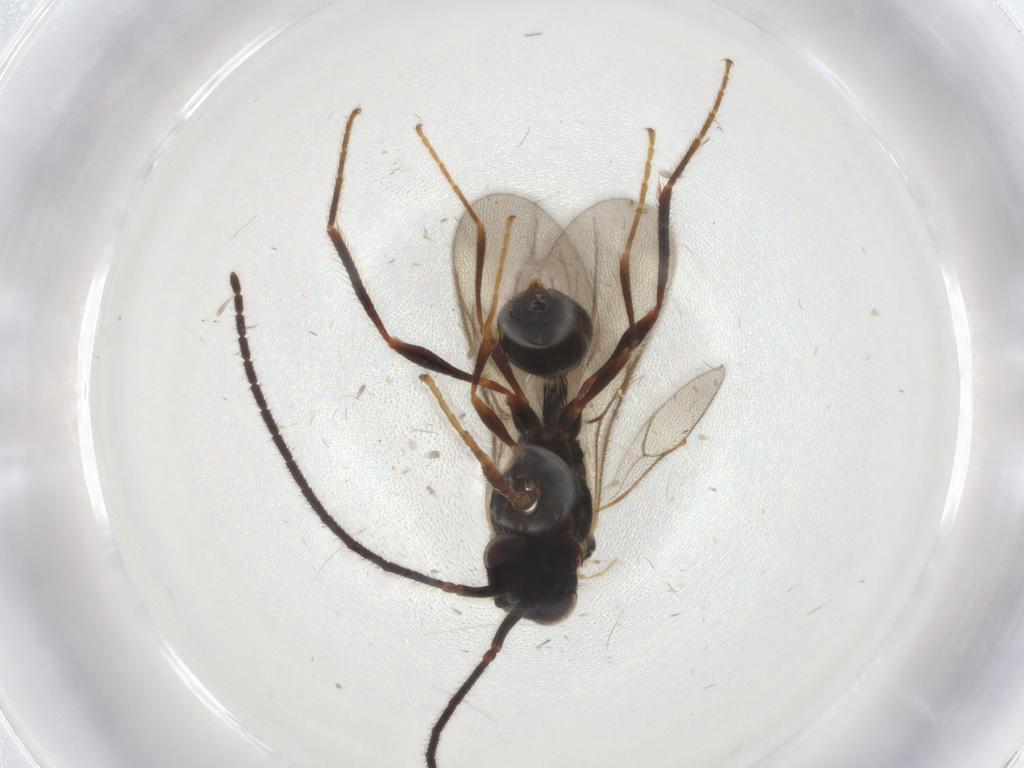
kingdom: Animalia
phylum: Arthropoda
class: Insecta
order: Hymenoptera
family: Diapriidae
